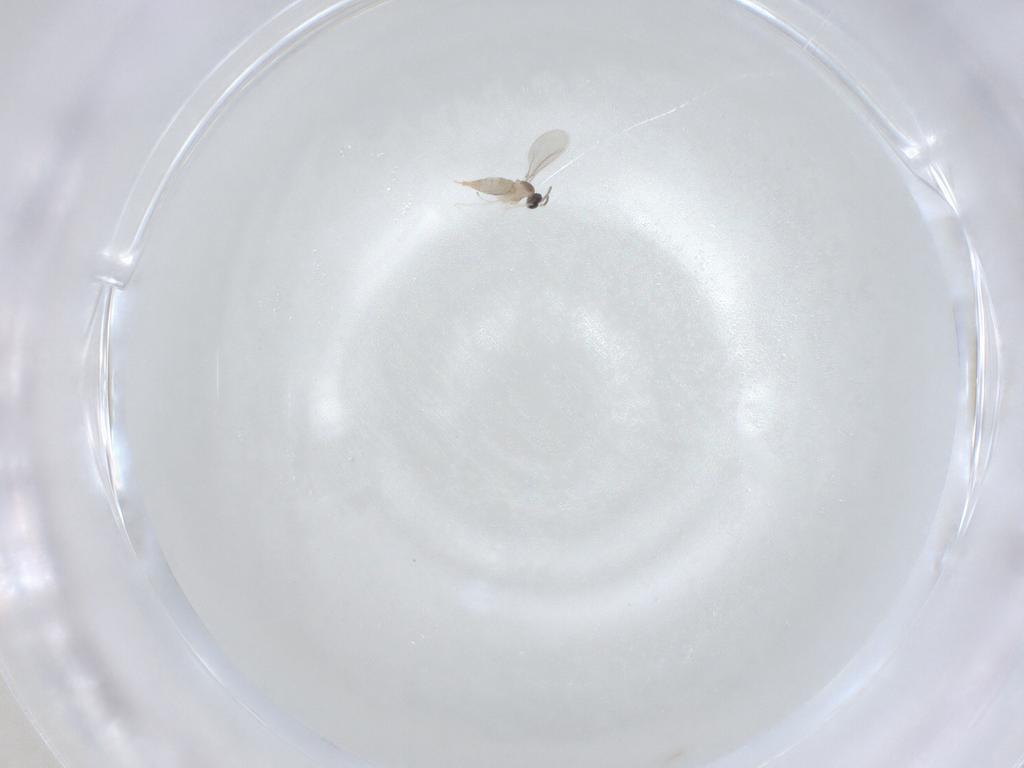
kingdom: Animalia
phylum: Arthropoda
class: Insecta
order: Diptera
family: Cecidomyiidae
